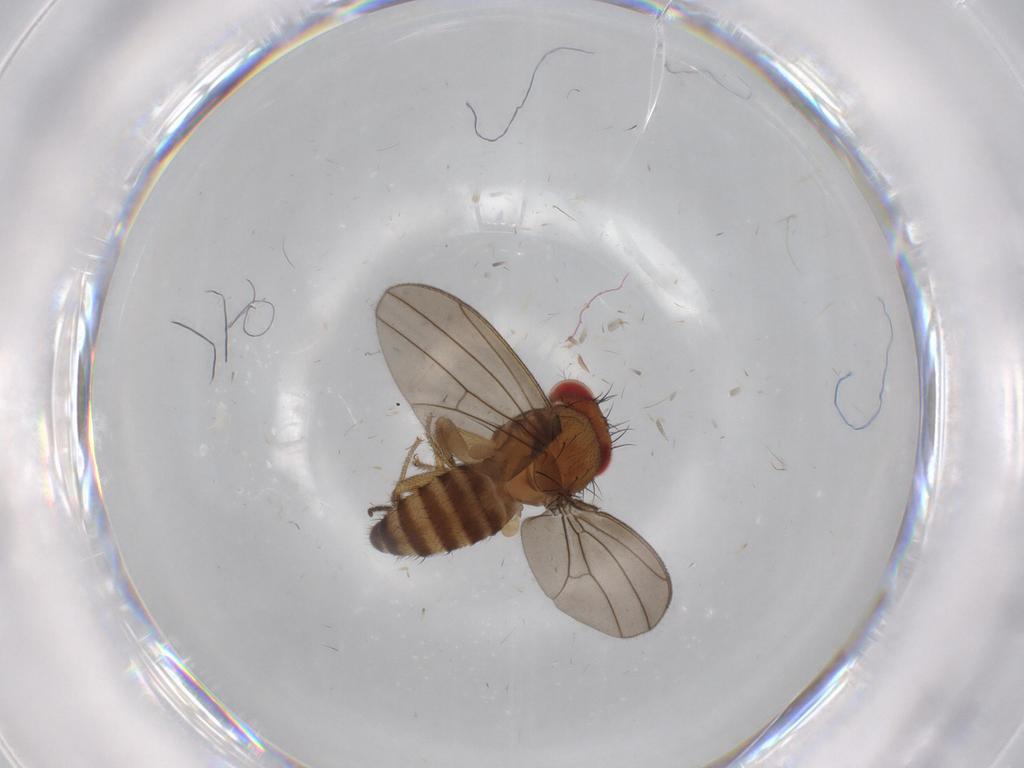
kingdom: Animalia
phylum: Arthropoda
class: Insecta
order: Diptera
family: Drosophilidae
